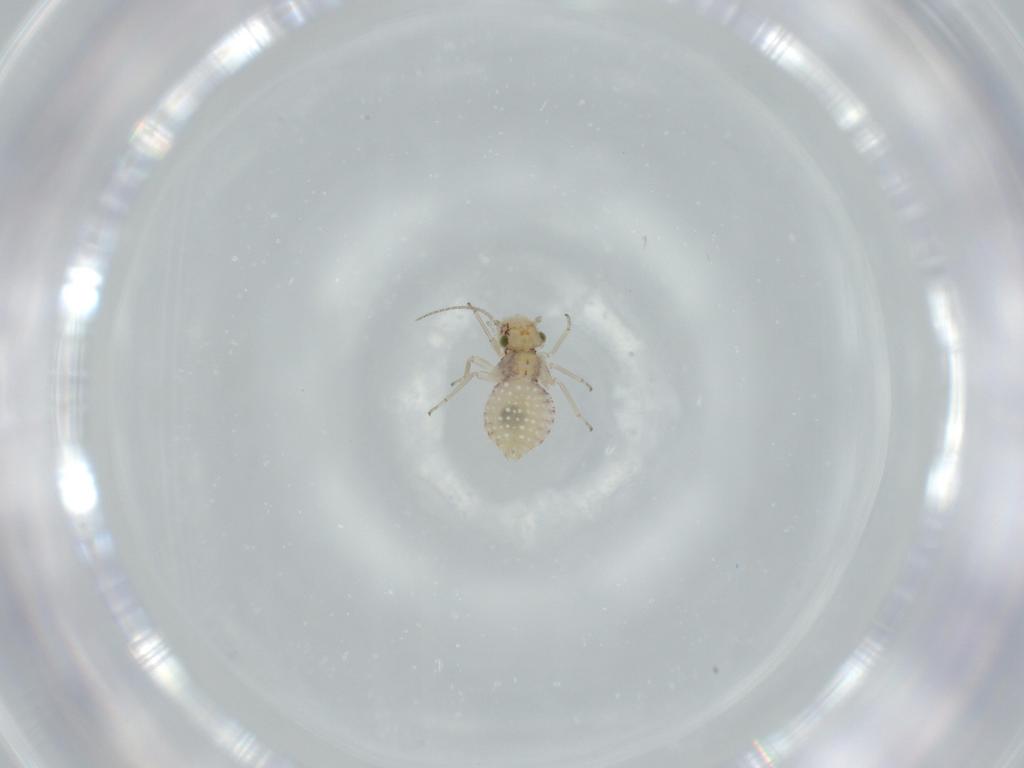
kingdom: Animalia
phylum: Arthropoda
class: Insecta
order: Psocodea
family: Lachesillidae
